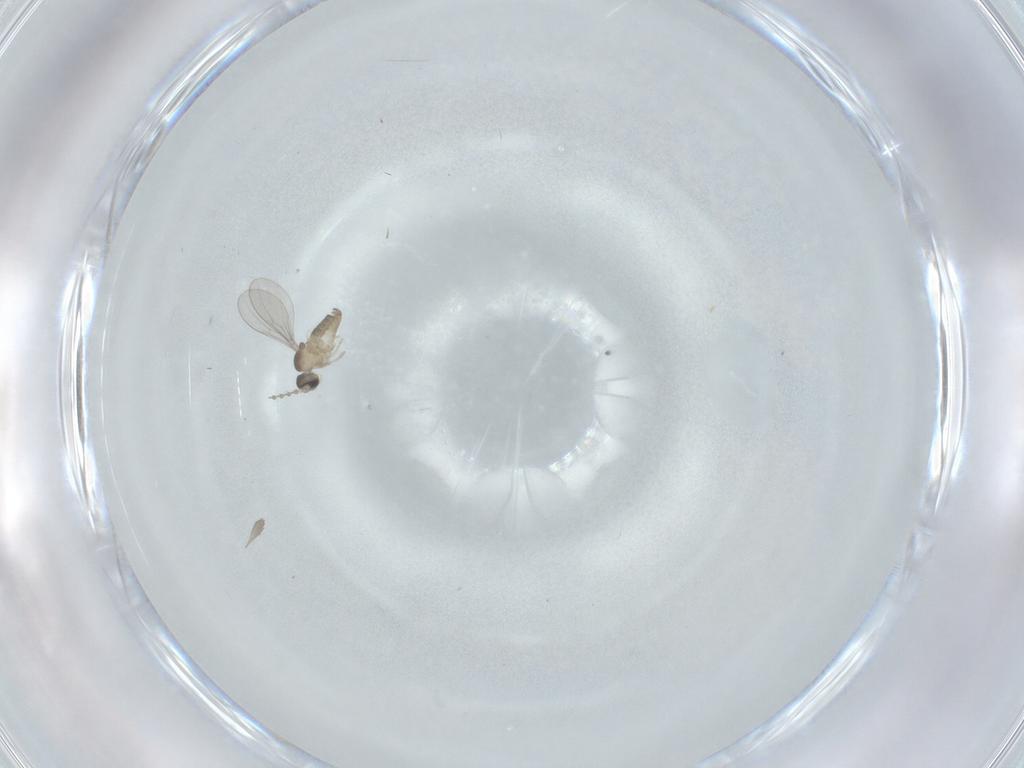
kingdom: Animalia
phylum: Arthropoda
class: Insecta
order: Diptera
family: Cecidomyiidae
